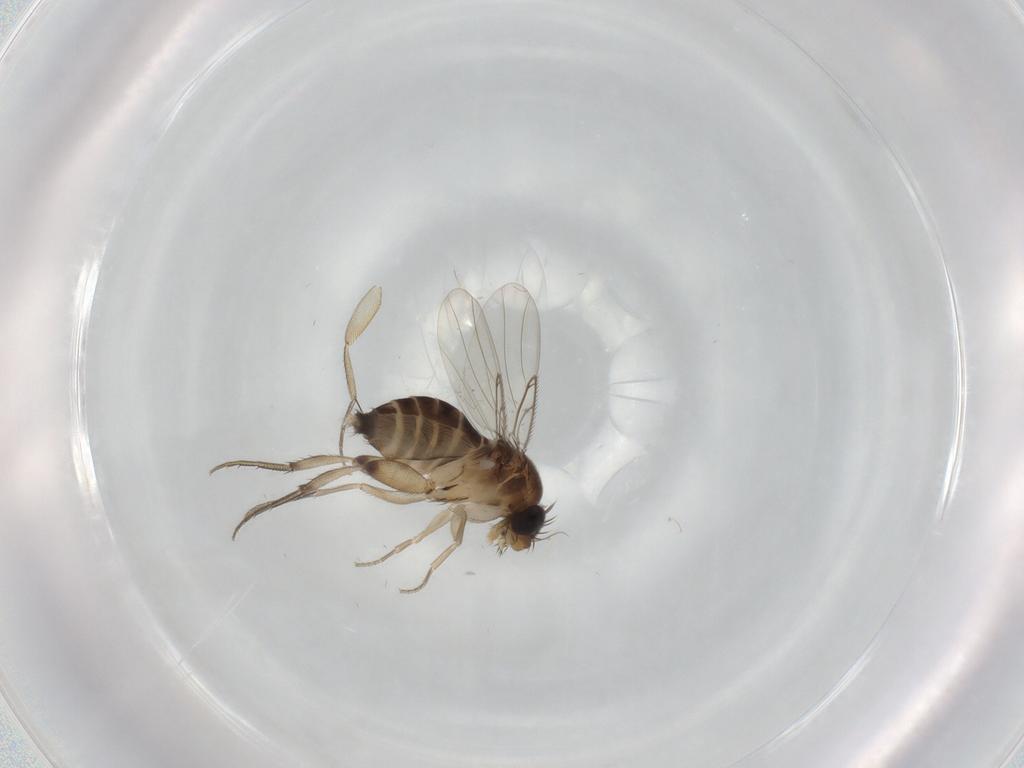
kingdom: Animalia
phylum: Arthropoda
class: Insecta
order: Diptera
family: Phoridae
